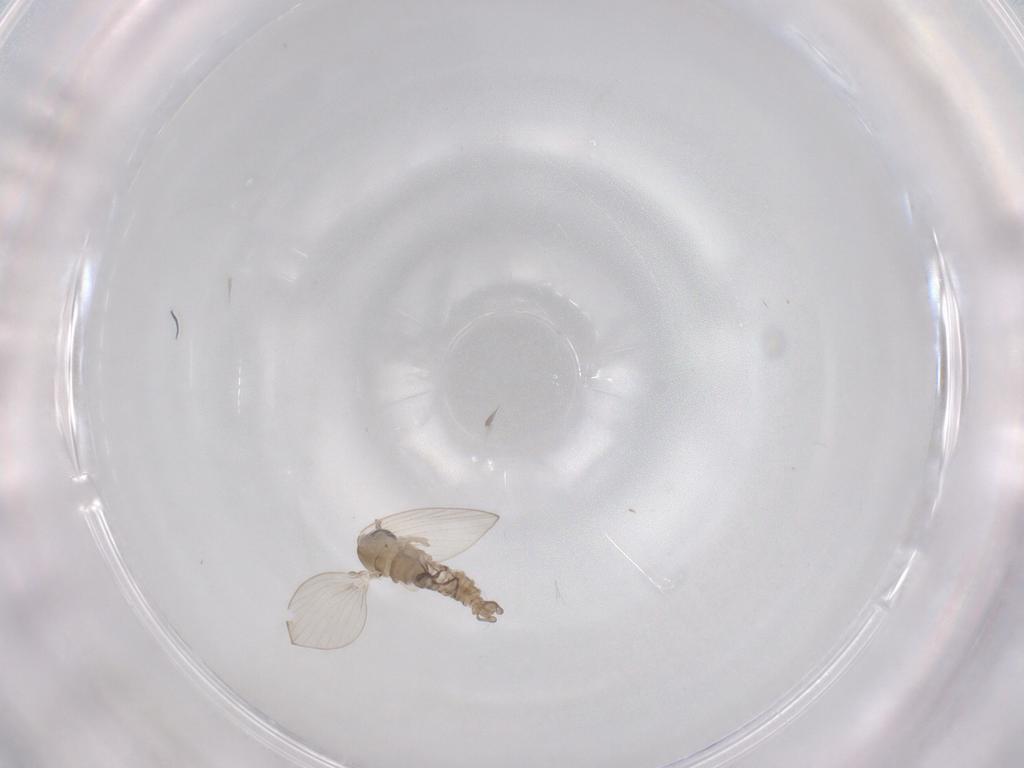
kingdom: Animalia
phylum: Arthropoda
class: Insecta
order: Diptera
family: Psychodidae
